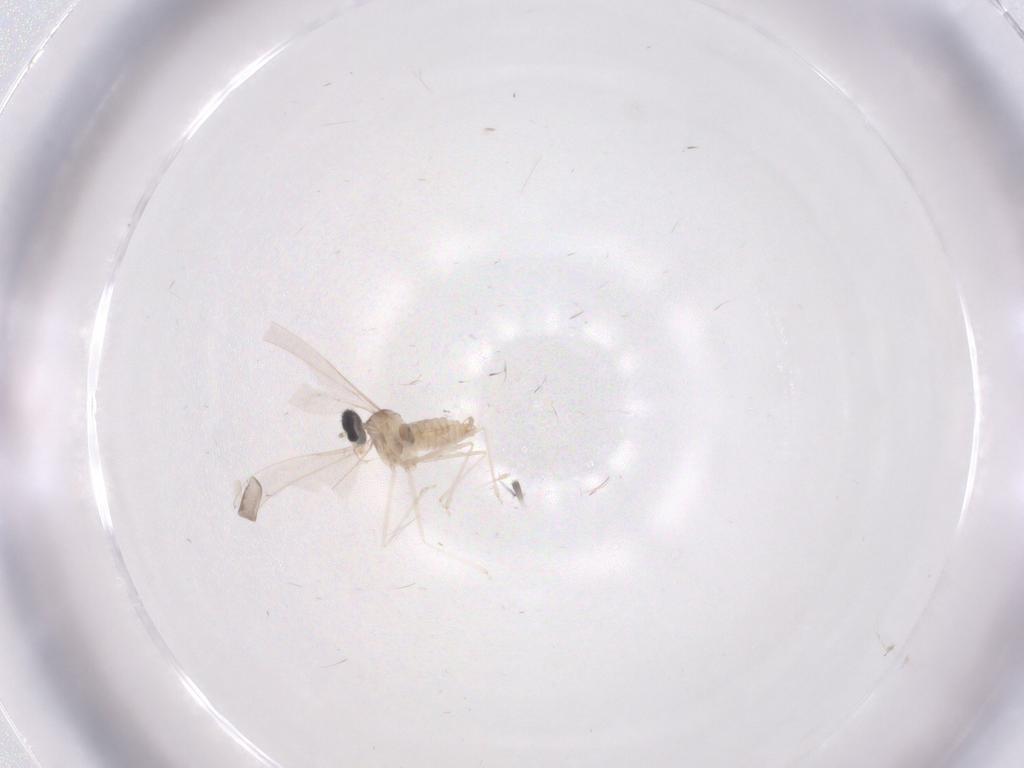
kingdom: Animalia
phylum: Arthropoda
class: Insecta
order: Diptera
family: Cecidomyiidae
